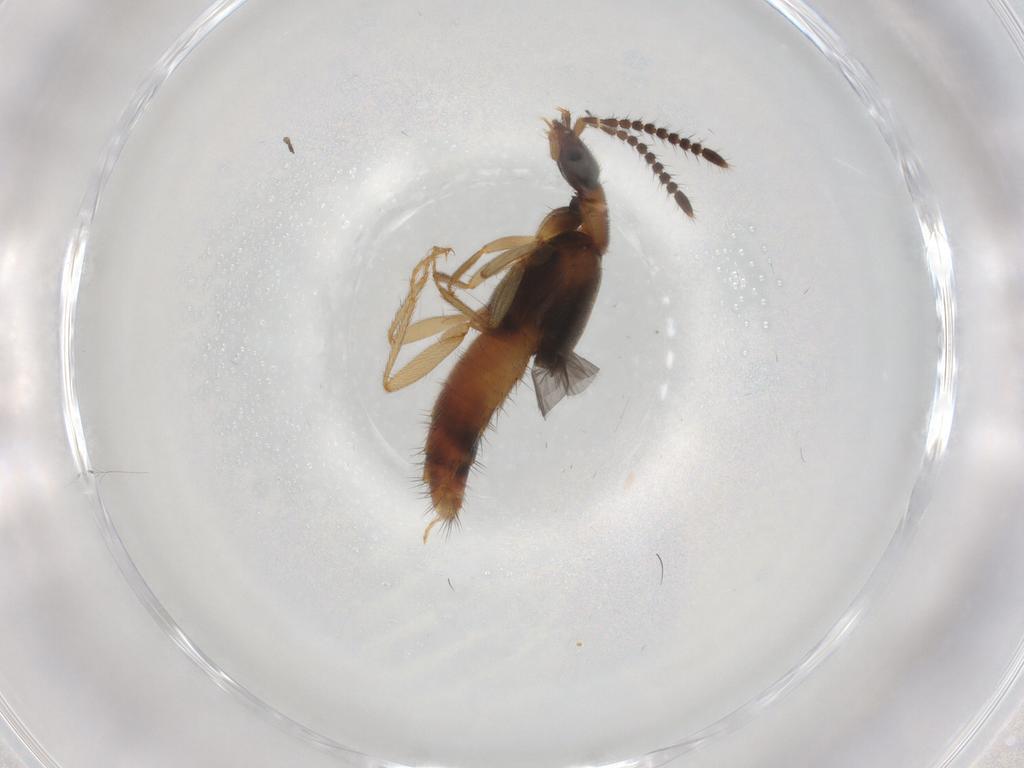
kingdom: Animalia
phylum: Arthropoda
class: Insecta
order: Coleoptera
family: Staphylinidae
